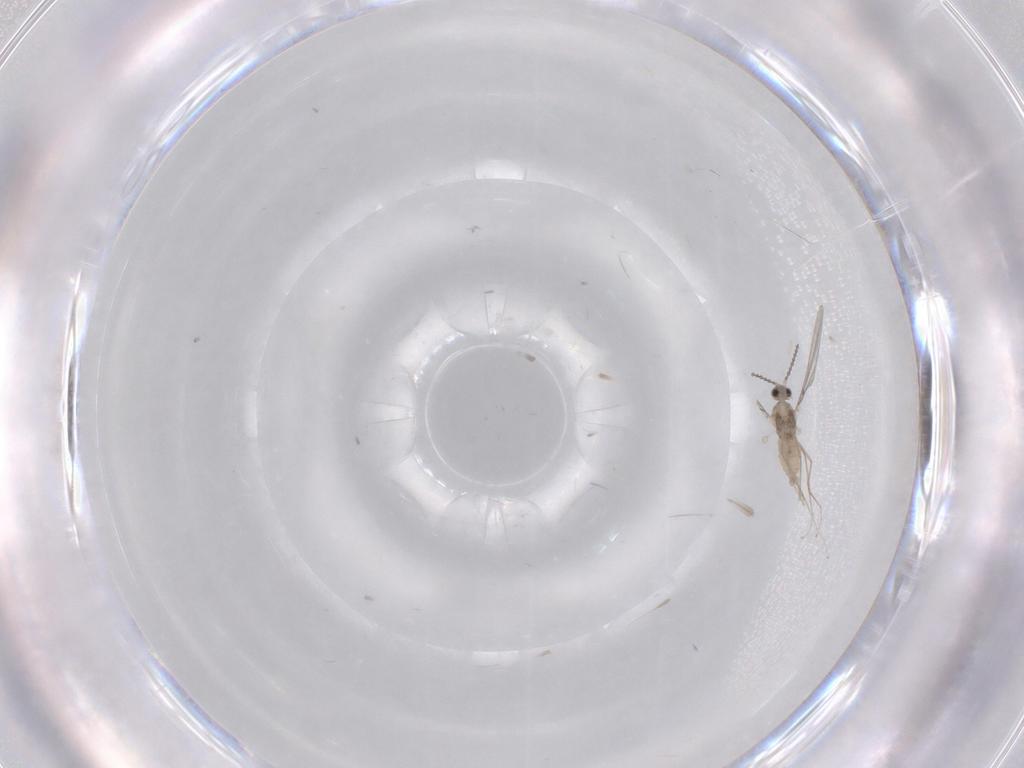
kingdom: Animalia
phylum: Arthropoda
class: Insecta
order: Diptera
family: Cecidomyiidae
